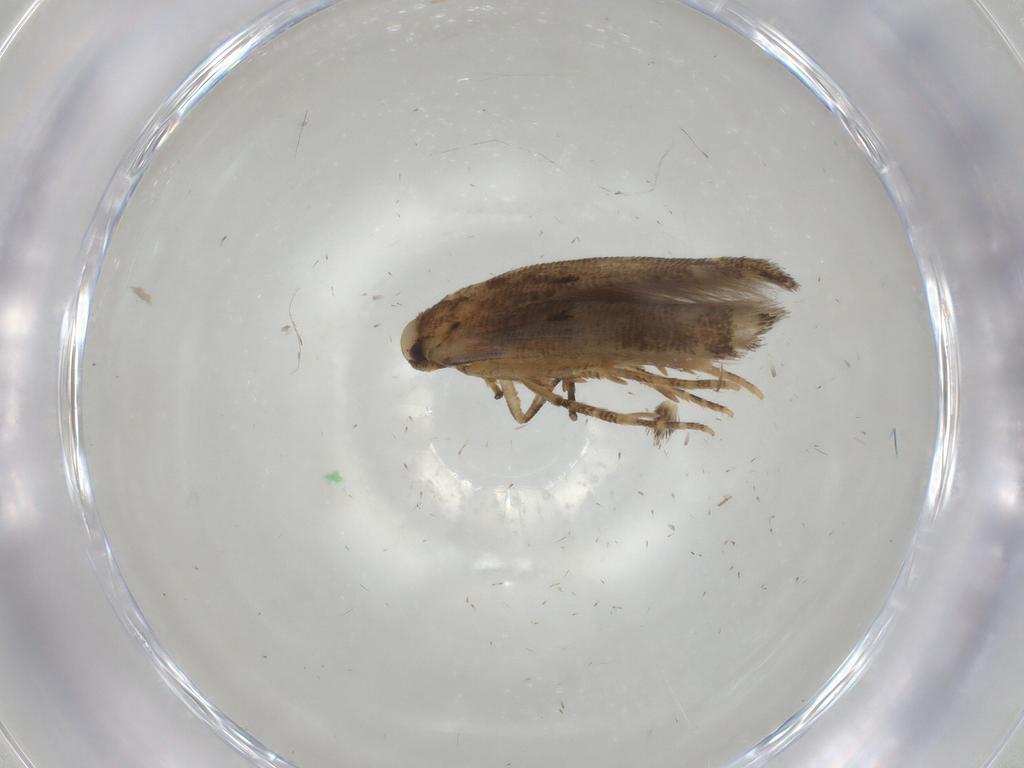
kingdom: Animalia
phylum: Arthropoda
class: Insecta
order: Lepidoptera
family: Cosmopterigidae
